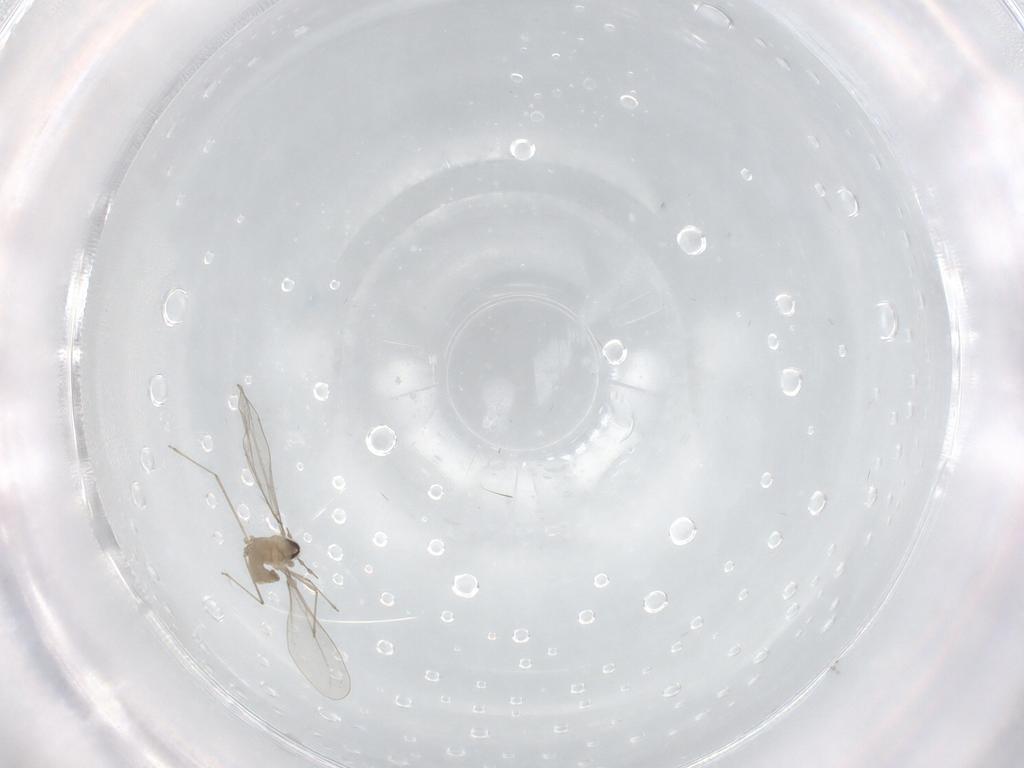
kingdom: Animalia
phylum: Arthropoda
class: Insecta
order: Diptera
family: Cecidomyiidae
